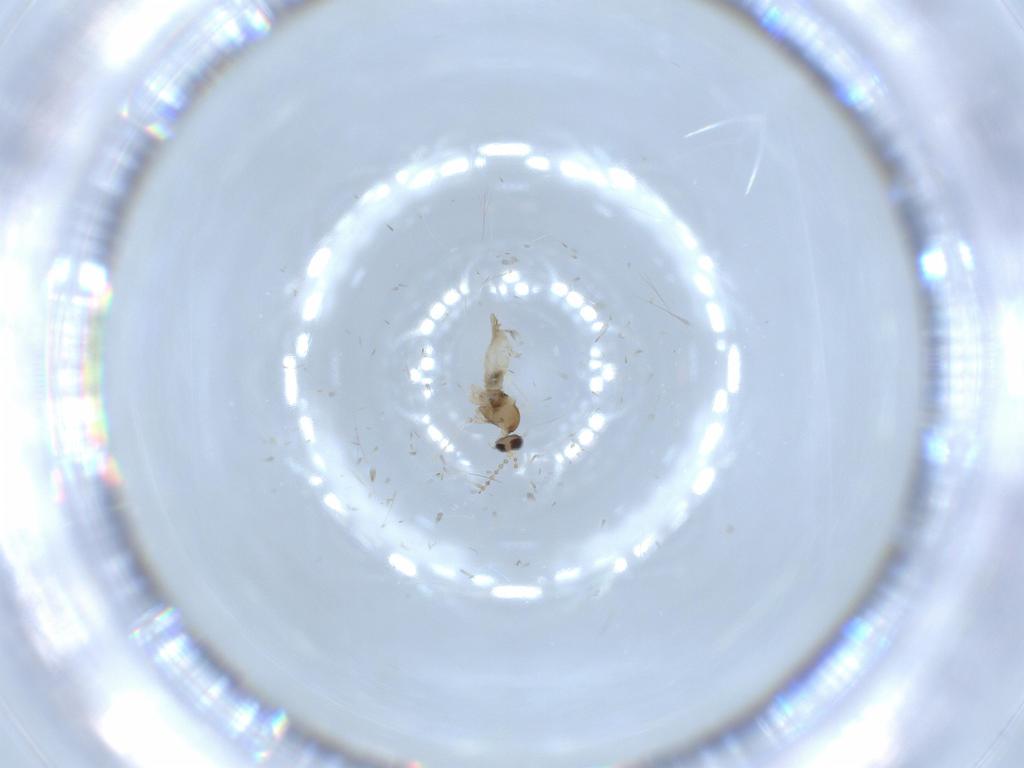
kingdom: Animalia
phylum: Arthropoda
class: Insecta
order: Diptera
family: Cecidomyiidae
